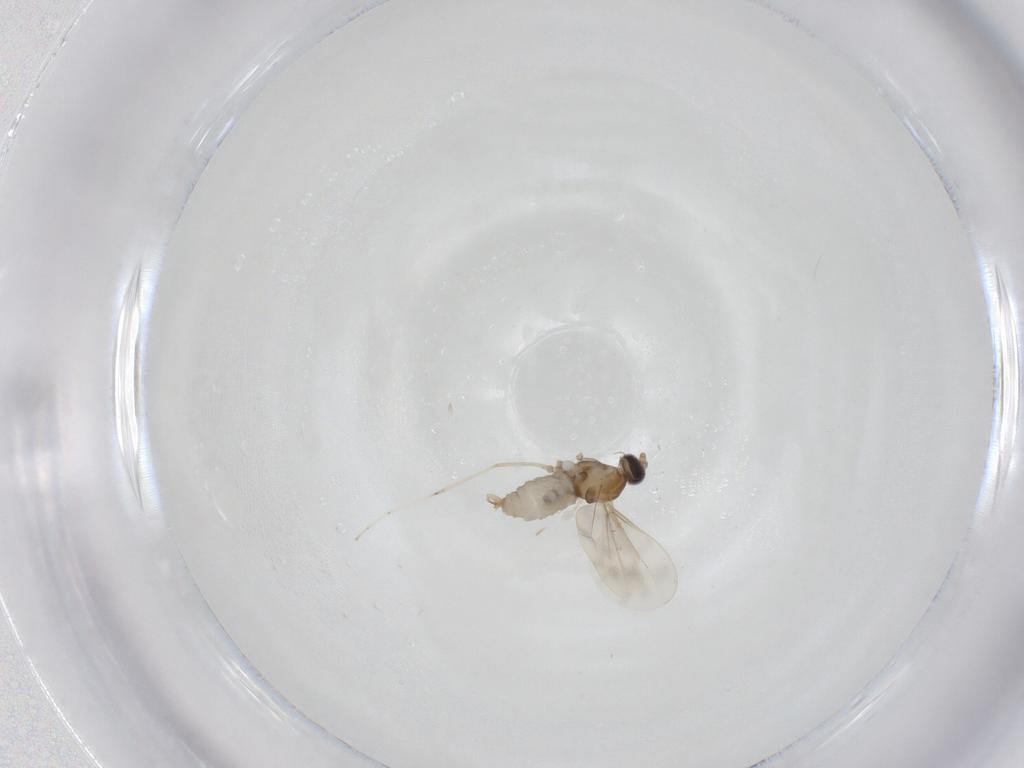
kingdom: Animalia
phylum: Arthropoda
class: Insecta
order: Diptera
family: Cecidomyiidae
